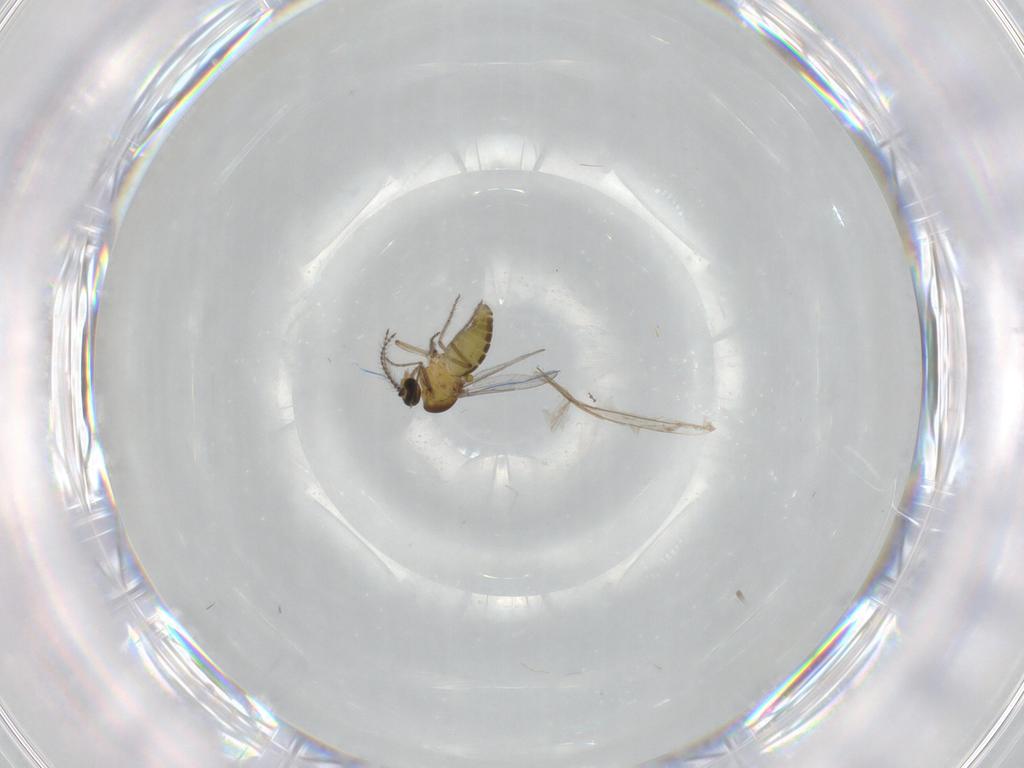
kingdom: Animalia
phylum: Arthropoda
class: Insecta
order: Diptera
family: Ceratopogonidae
